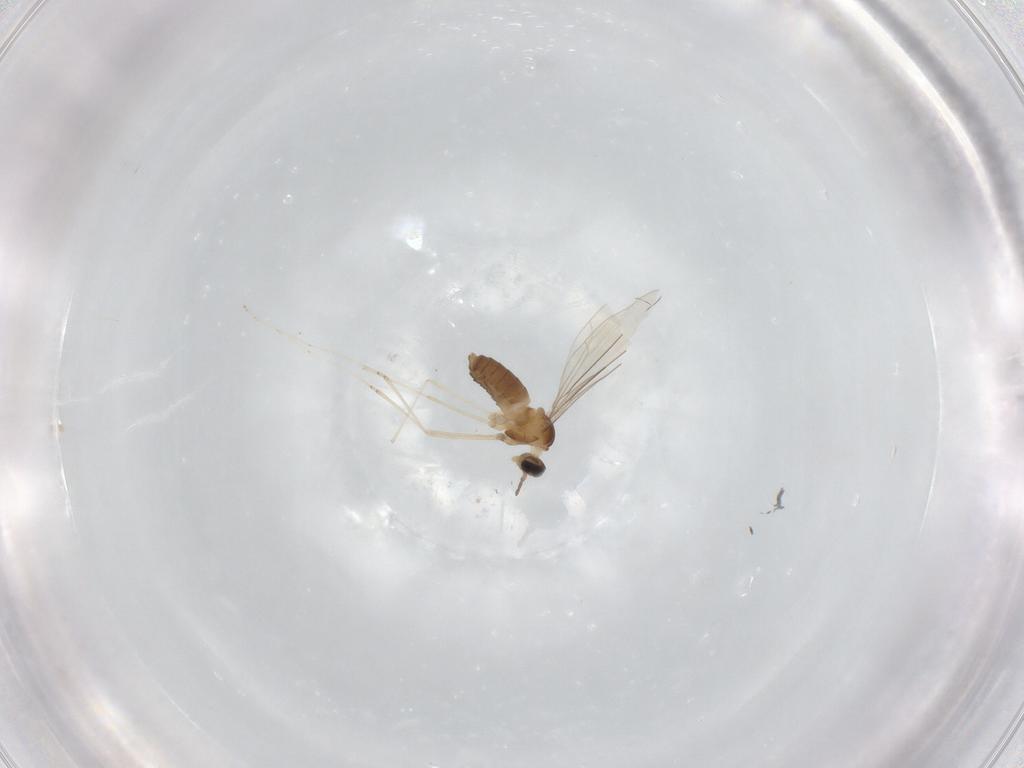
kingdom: Animalia
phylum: Arthropoda
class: Insecta
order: Diptera
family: Cecidomyiidae
